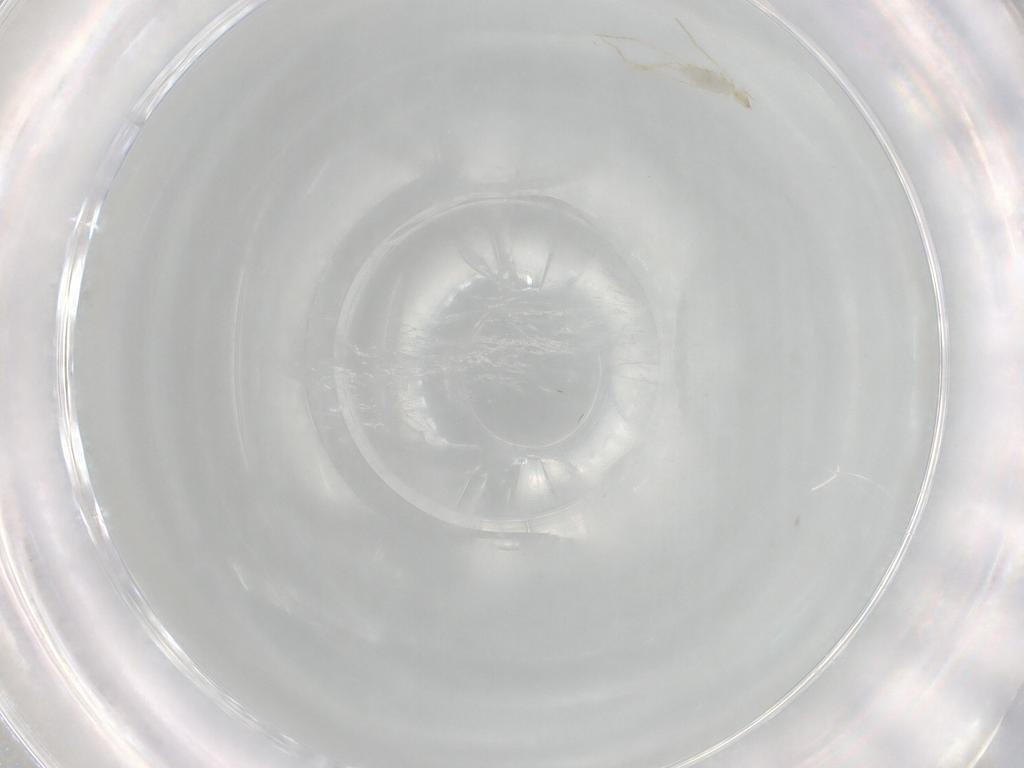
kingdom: Animalia
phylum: Arthropoda
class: Insecta
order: Diptera
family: Cecidomyiidae
